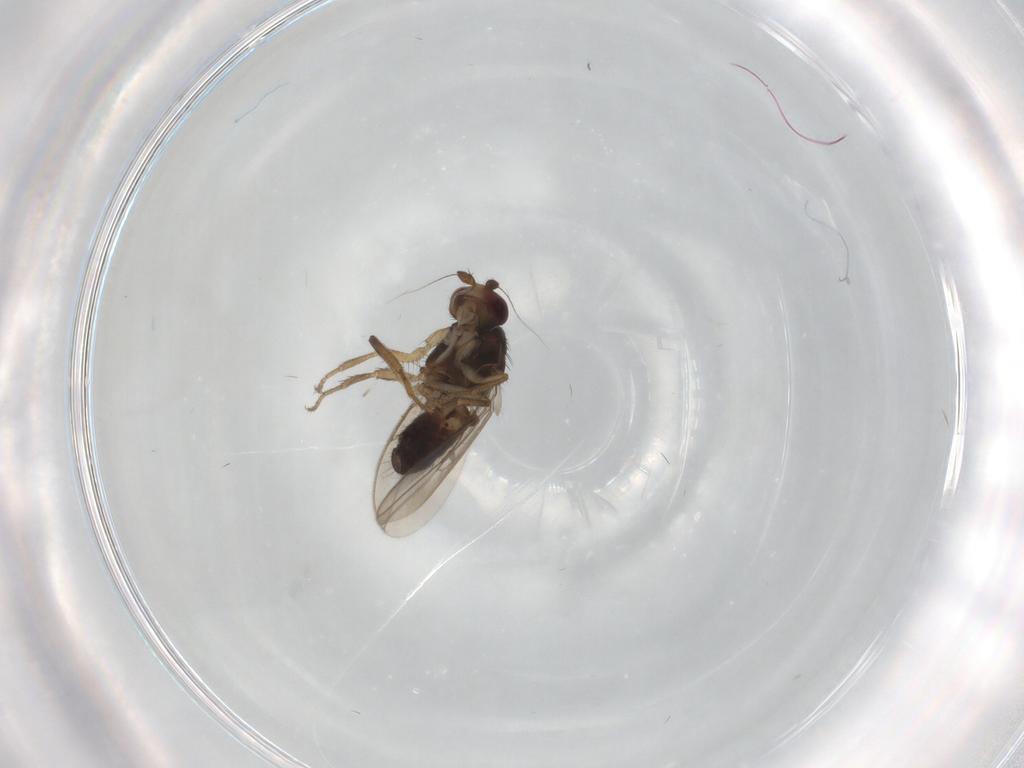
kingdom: Animalia
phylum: Arthropoda
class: Insecta
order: Diptera
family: Sphaeroceridae
